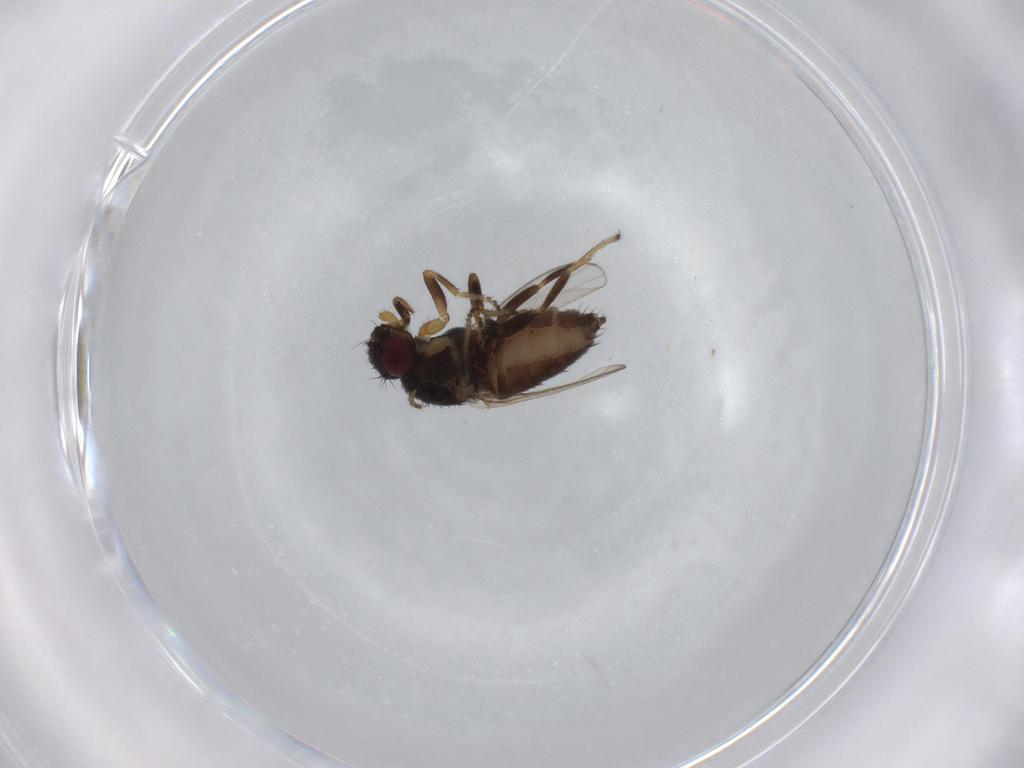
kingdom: Animalia
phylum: Arthropoda
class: Insecta
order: Diptera
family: Milichiidae
